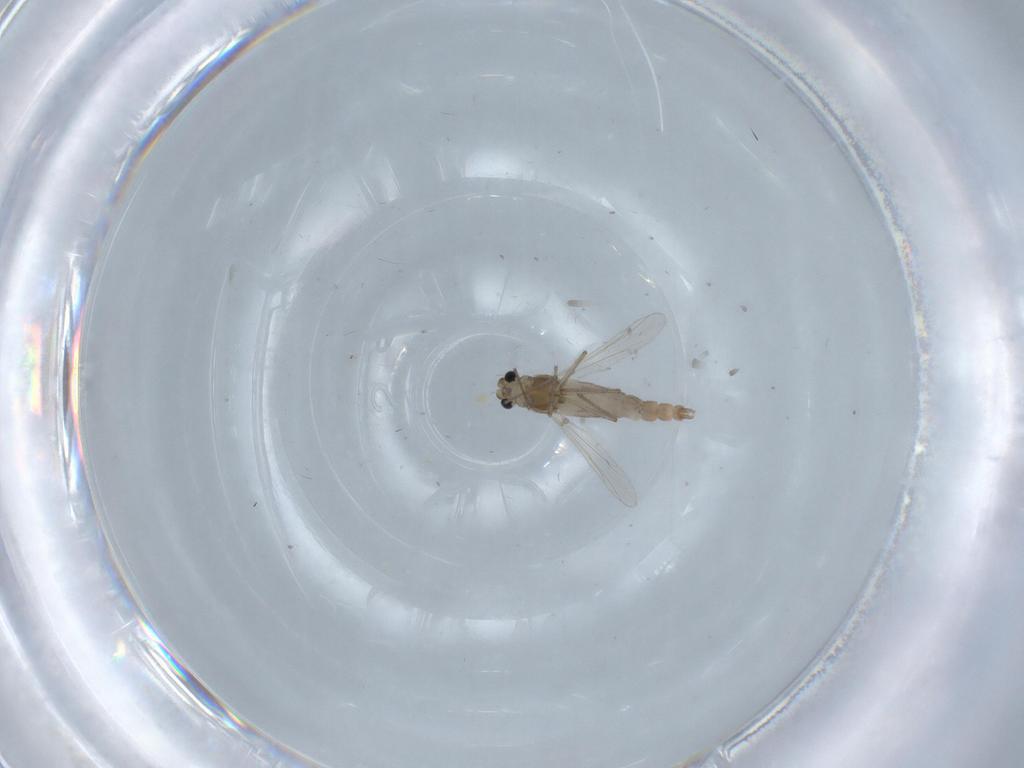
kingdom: Animalia
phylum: Arthropoda
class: Insecta
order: Diptera
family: Chironomidae
